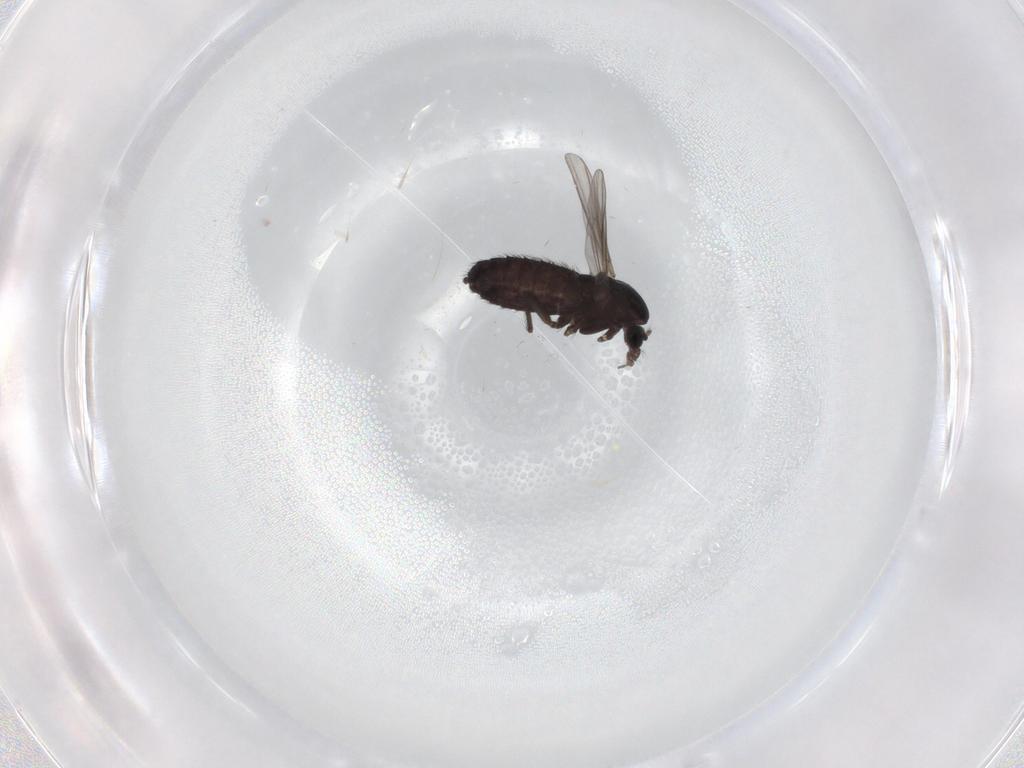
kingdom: Animalia
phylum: Arthropoda
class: Insecta
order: Diptera
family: Chironomidae
